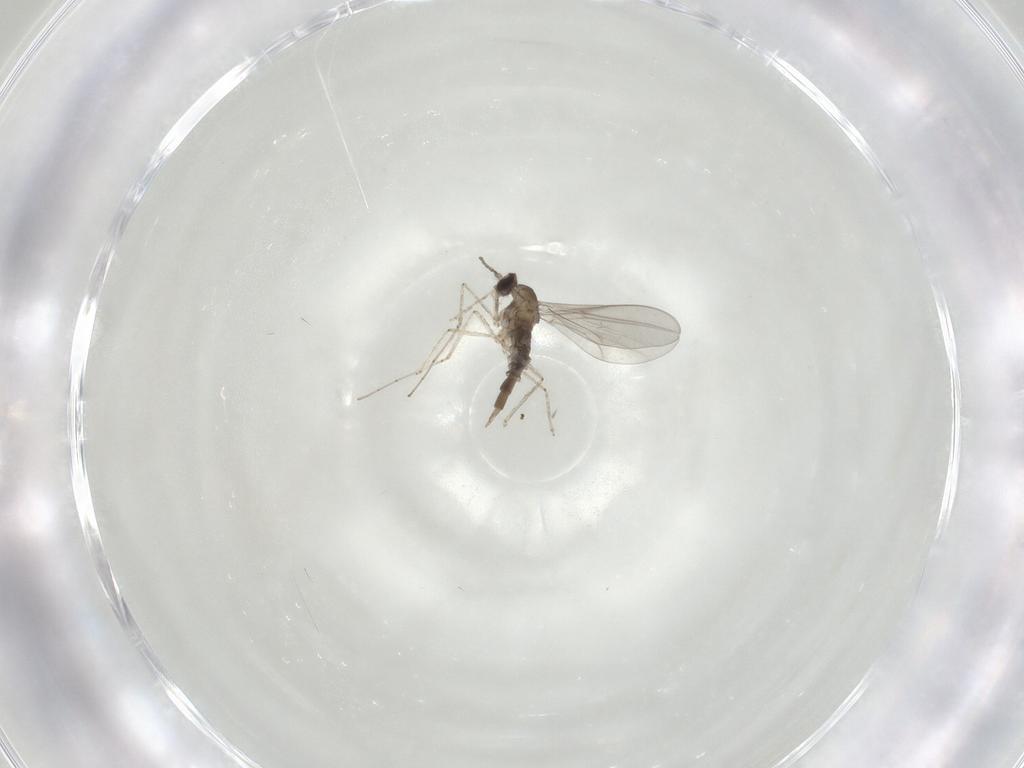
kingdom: Animalia
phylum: Arthropoda
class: Insecta
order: Diptera
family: Cecidomyiidae
